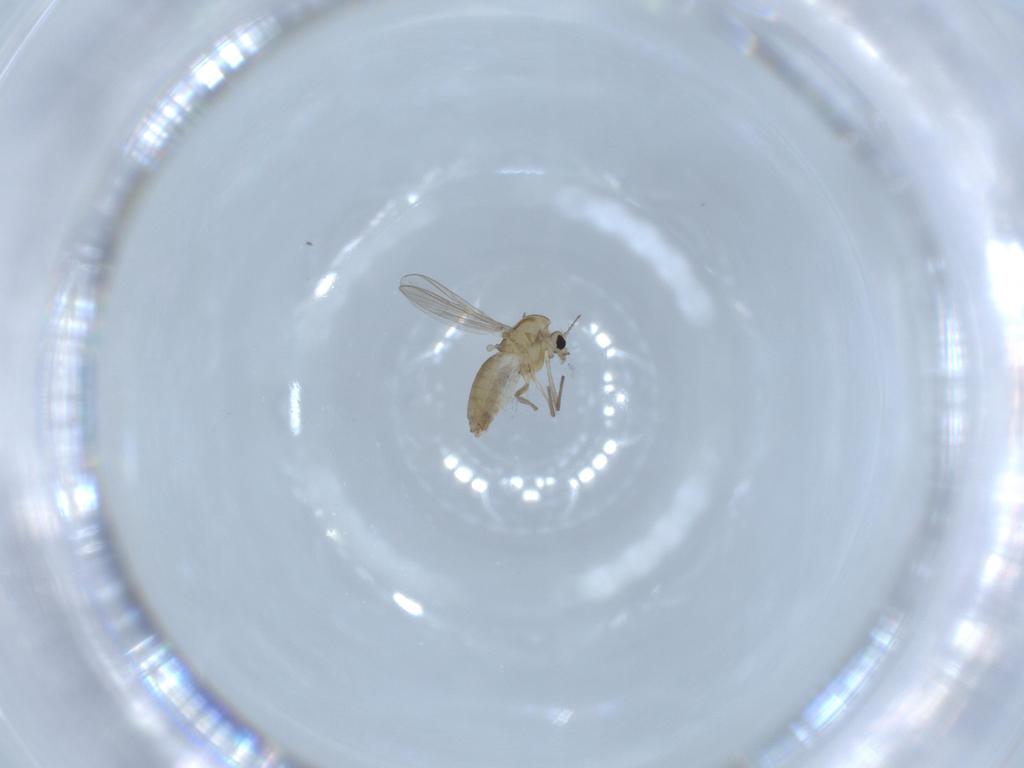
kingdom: Animalia
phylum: Arthropoda
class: Insecta
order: Diptera
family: Chironomidae
